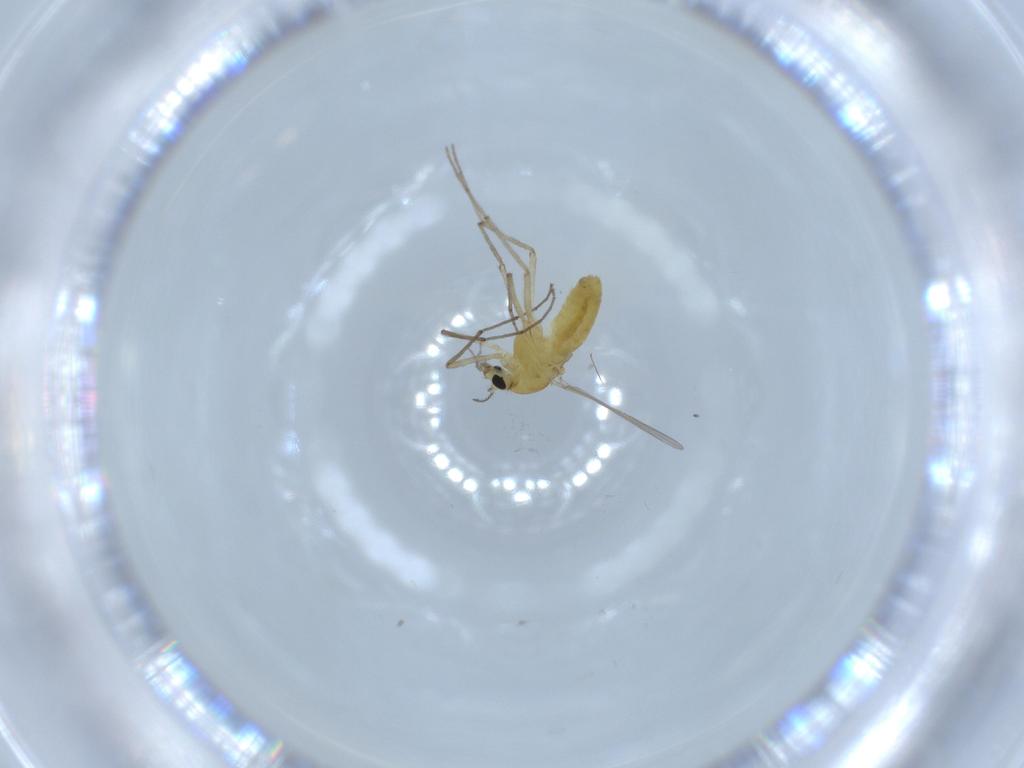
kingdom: Animalia
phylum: Arthropoda
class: Insecta
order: Diptera
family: Chironomidae
